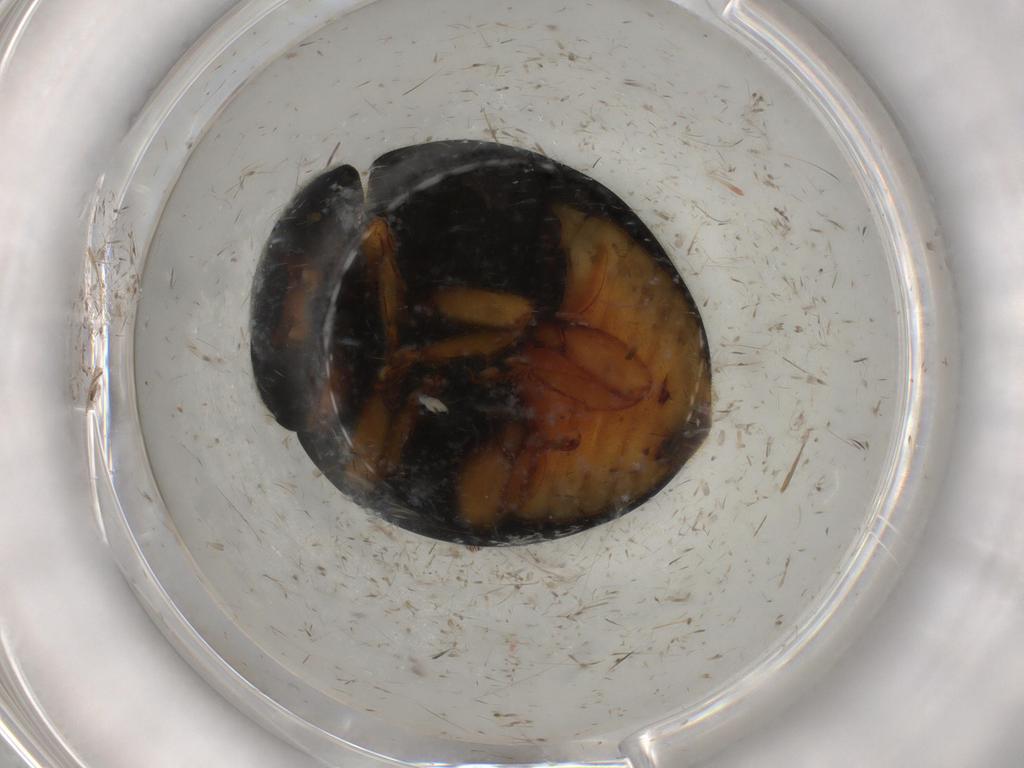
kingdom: Animalia
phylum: Arthropoda
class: Insecta
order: Coleoptera
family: Coccinellidae
